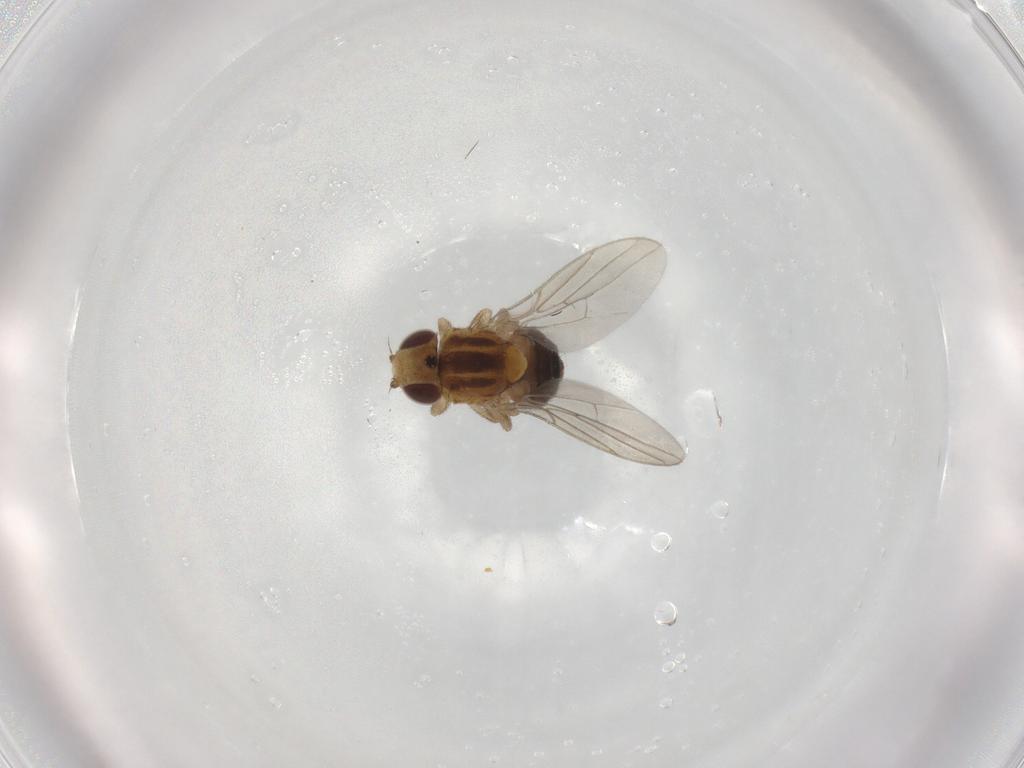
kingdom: Animalia
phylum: Arthropoda
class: Insecta
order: Diptera
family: Chloropidae
